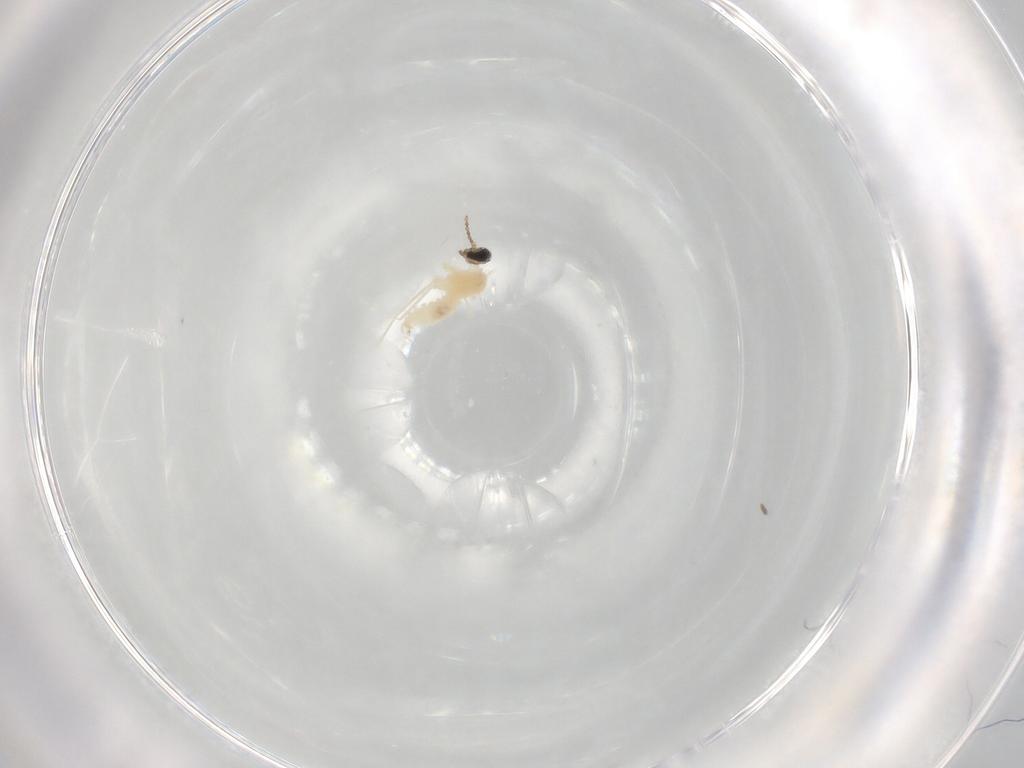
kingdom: Animalia
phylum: Arthropoda
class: Insecta
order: Diptera
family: Cecidomyiidae
